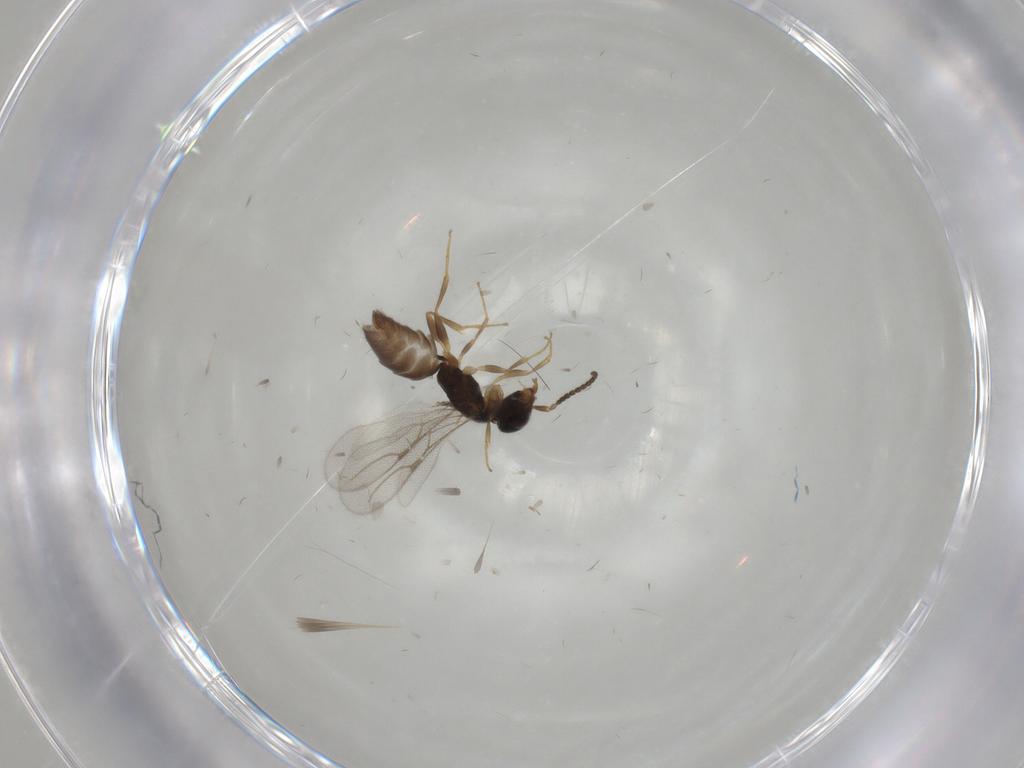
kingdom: Animalia
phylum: Arthropoda
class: Insecta
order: Hymenoptera
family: Bethylidae
